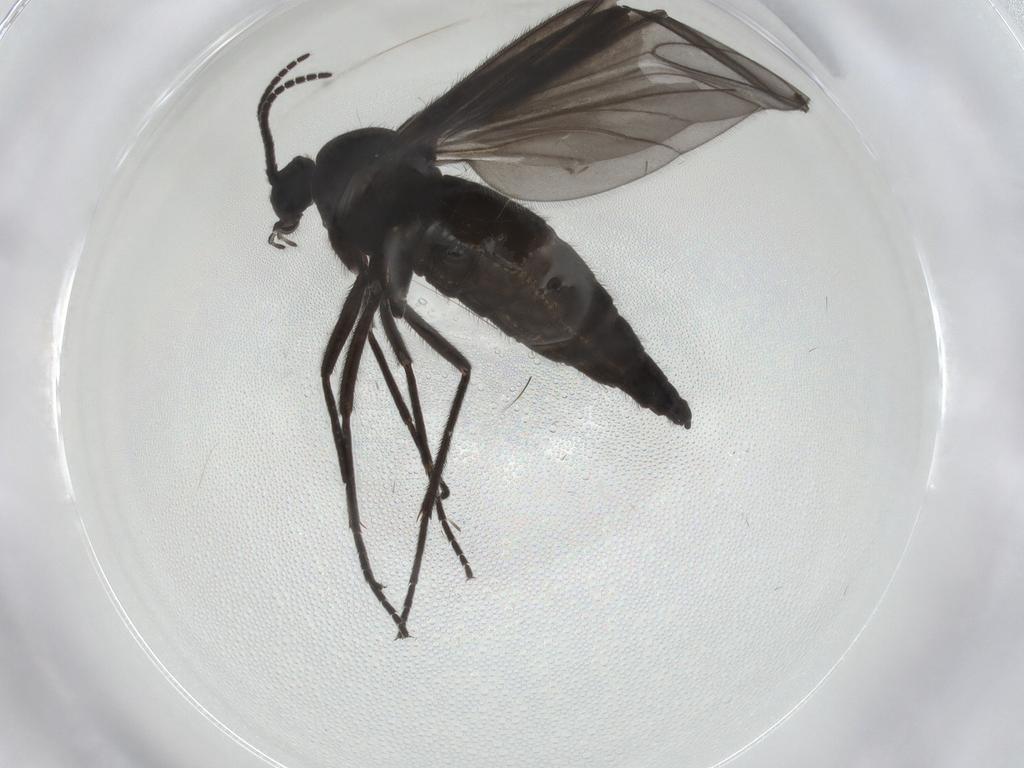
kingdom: Animalia
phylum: Arthropoda
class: Insecta
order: Diptera
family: Sciaridae
